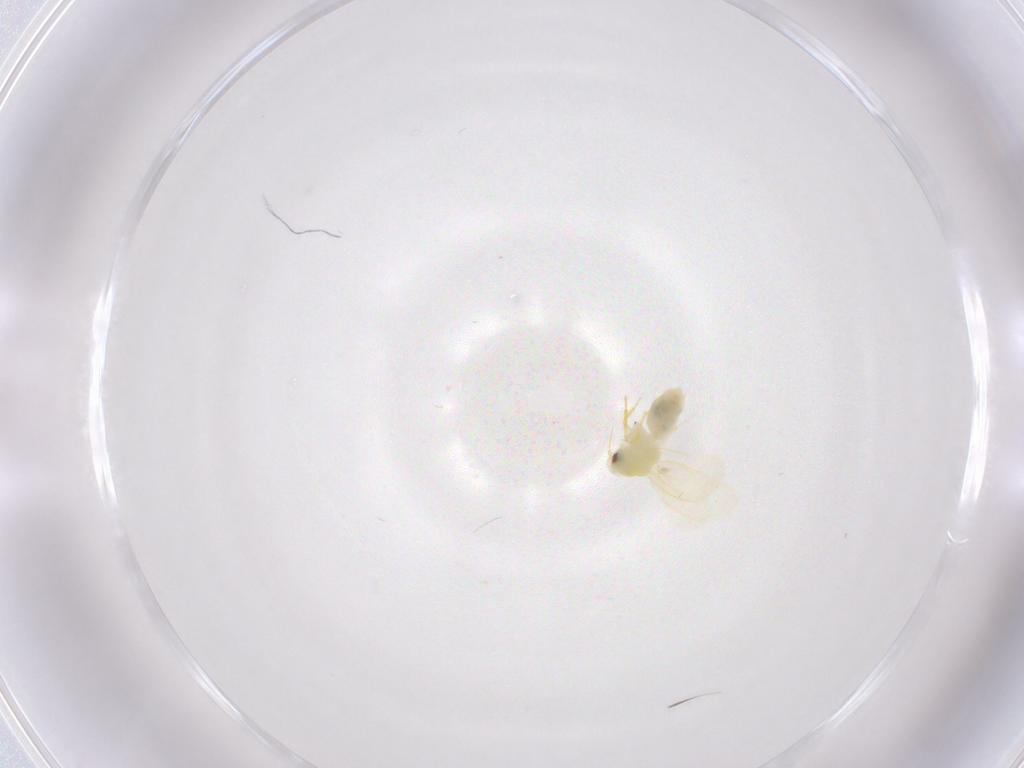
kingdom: Animalia
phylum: Arthropoda
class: Insecta
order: Hemiptera
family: Aleyrodidae
